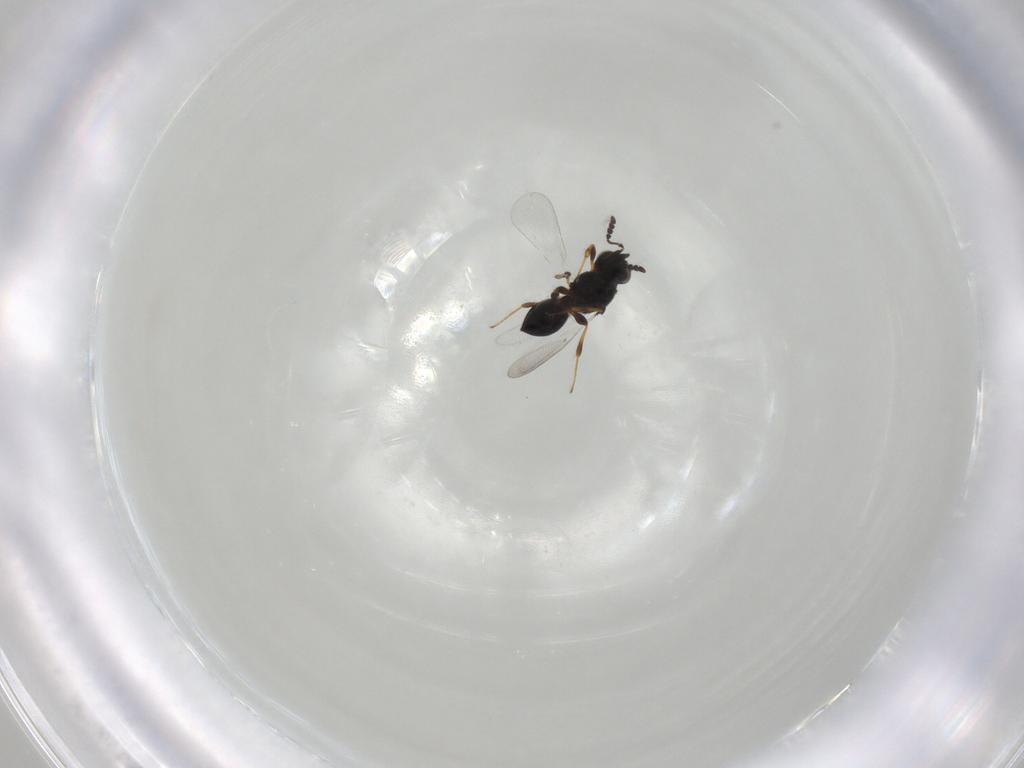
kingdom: Animalia
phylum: Arthropoda
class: Insecta
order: Hymenoptera
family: Platygastridae
